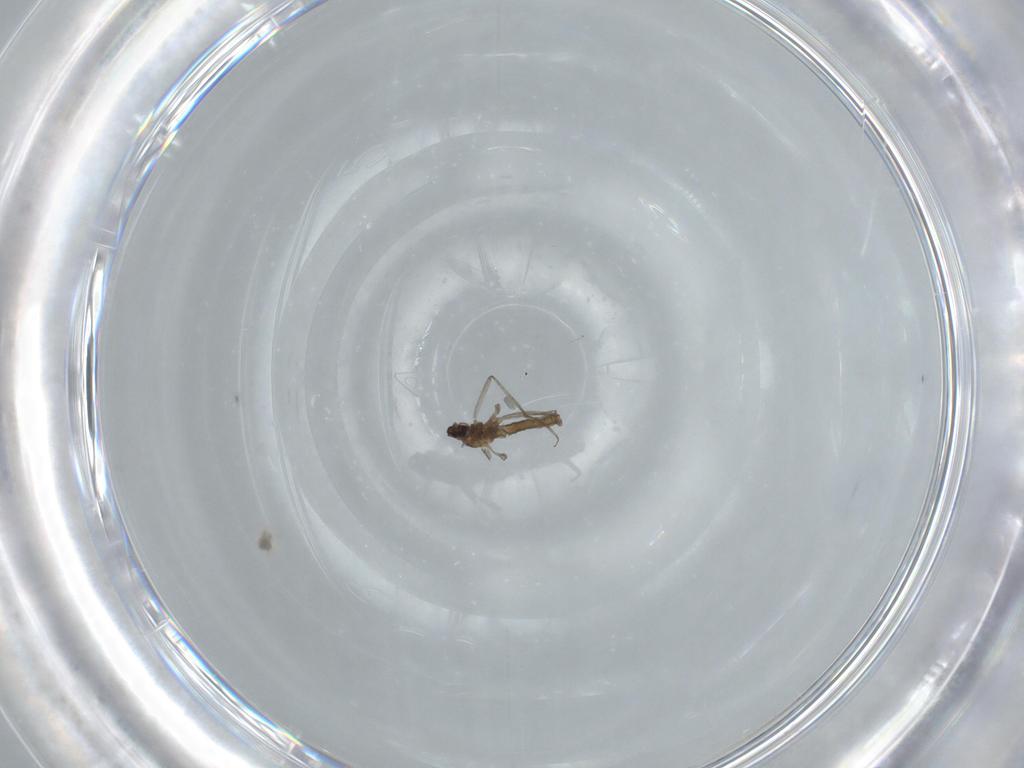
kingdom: Animalia
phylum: Arthropoda
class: Insecta
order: Diptera
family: Cecidomyiidae
